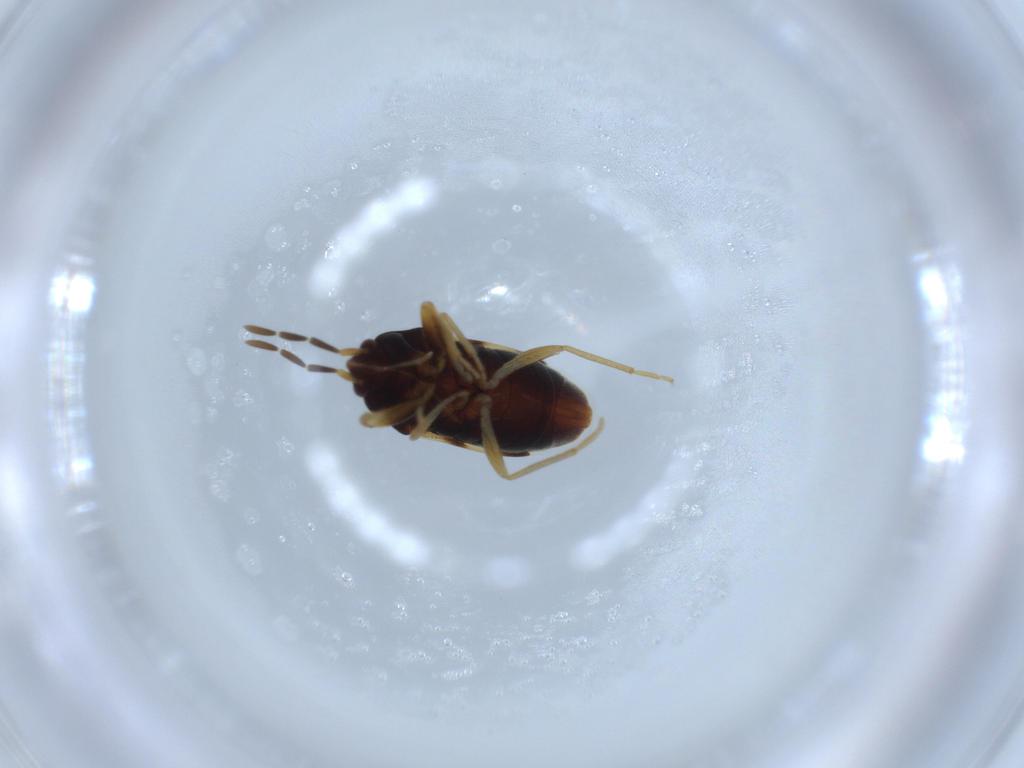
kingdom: Animalia
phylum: Arthropoda
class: Insecta
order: Hemiptera
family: Rhyparochromidae
